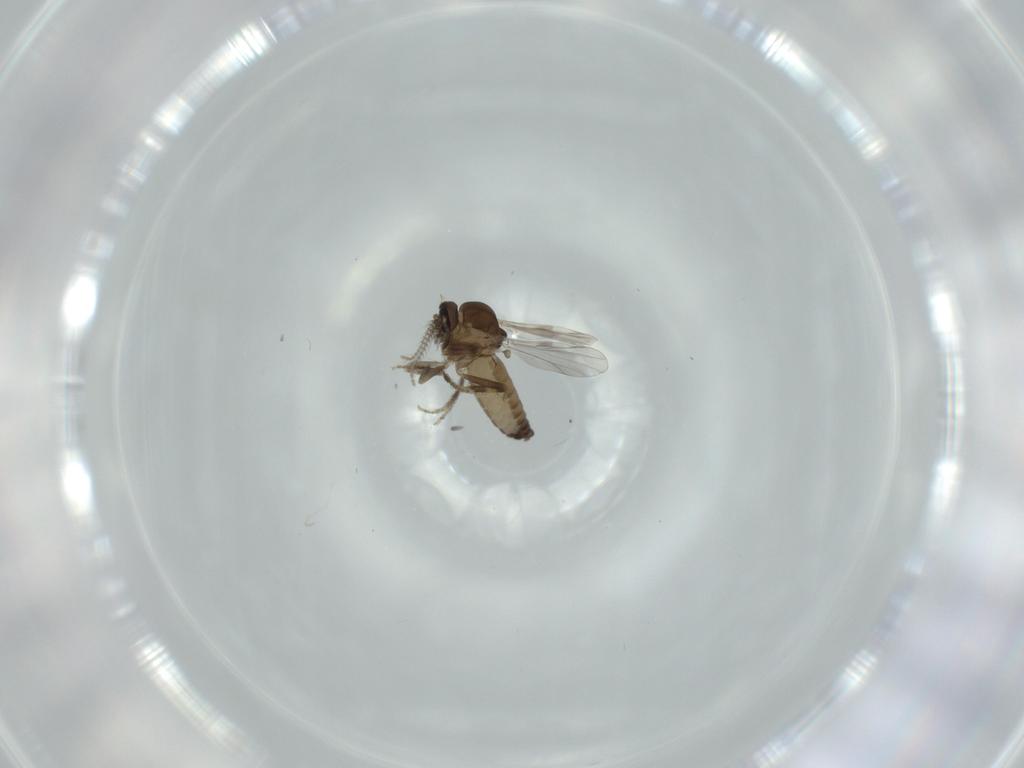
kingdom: Animalia
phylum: Arthropoda
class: Insecta
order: Diptera
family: Ceratopogonidae
